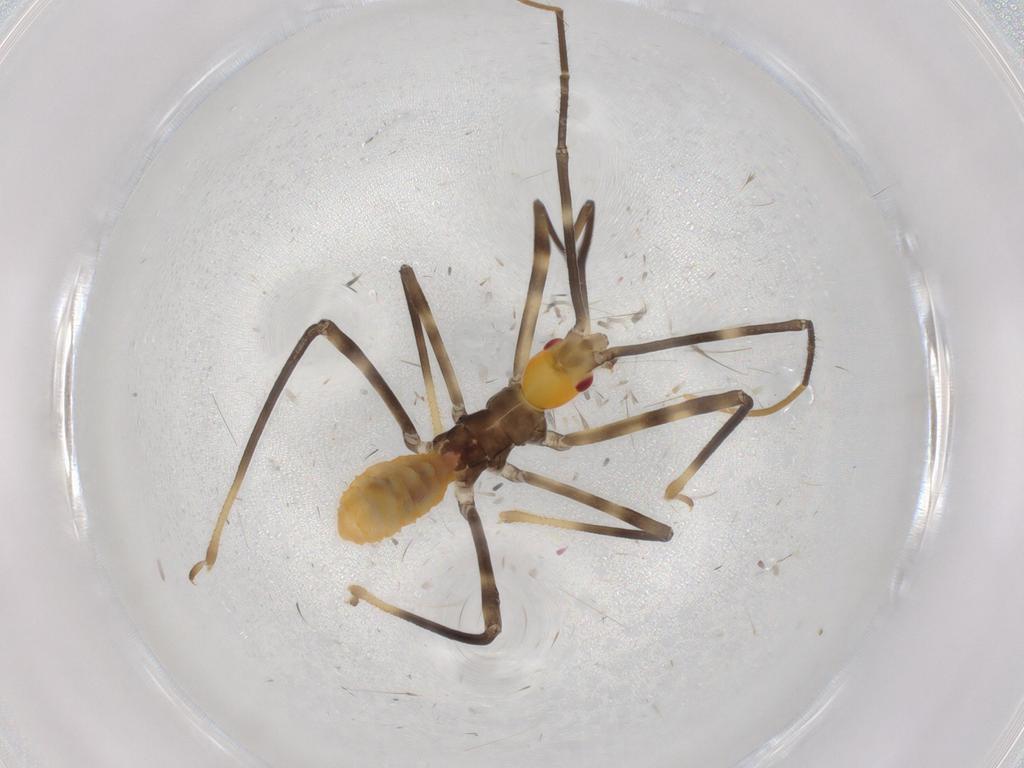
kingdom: Animalia
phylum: Arthropoda
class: Insecta
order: Hemiptera
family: Reduviidae
